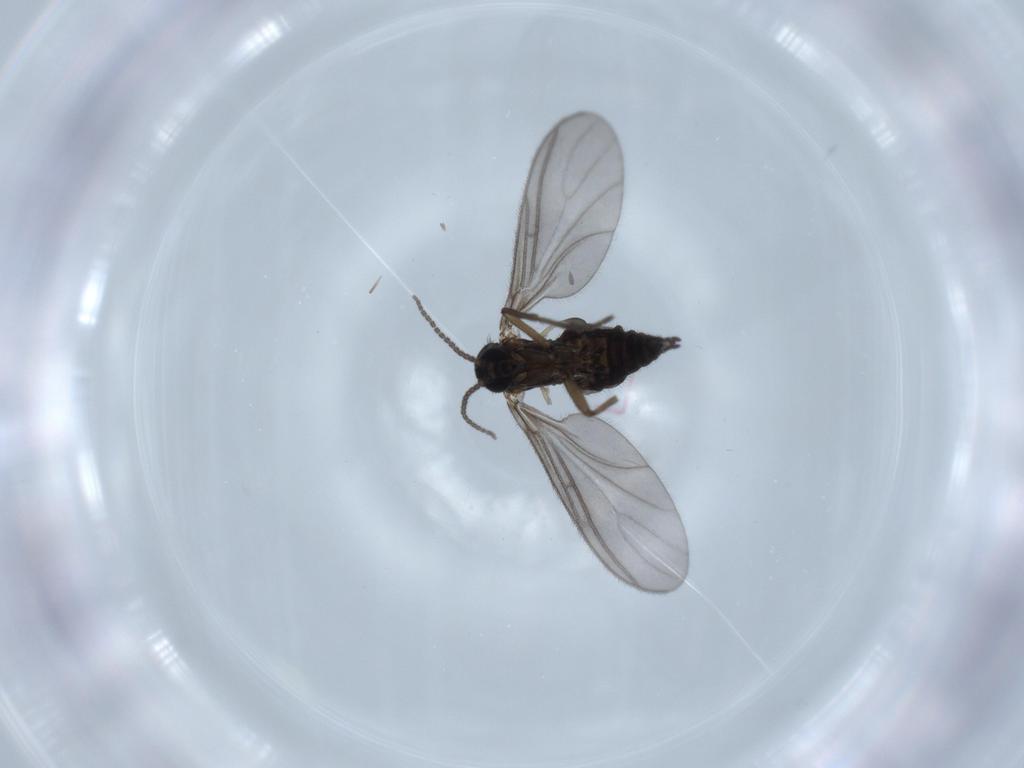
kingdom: Animalia
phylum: Arthropoda
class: Insecta
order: Diptera
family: Sciaridae
